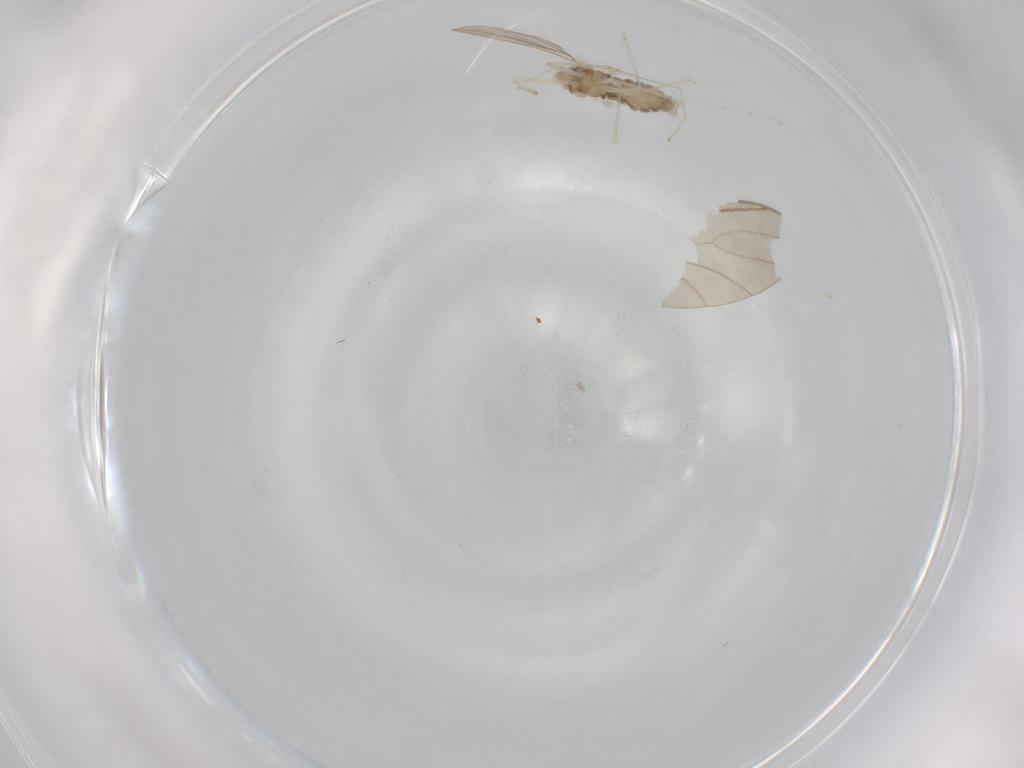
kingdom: Animalia
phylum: Arthropoda
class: Insecta
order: Diptera
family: Cecidomyiidae
